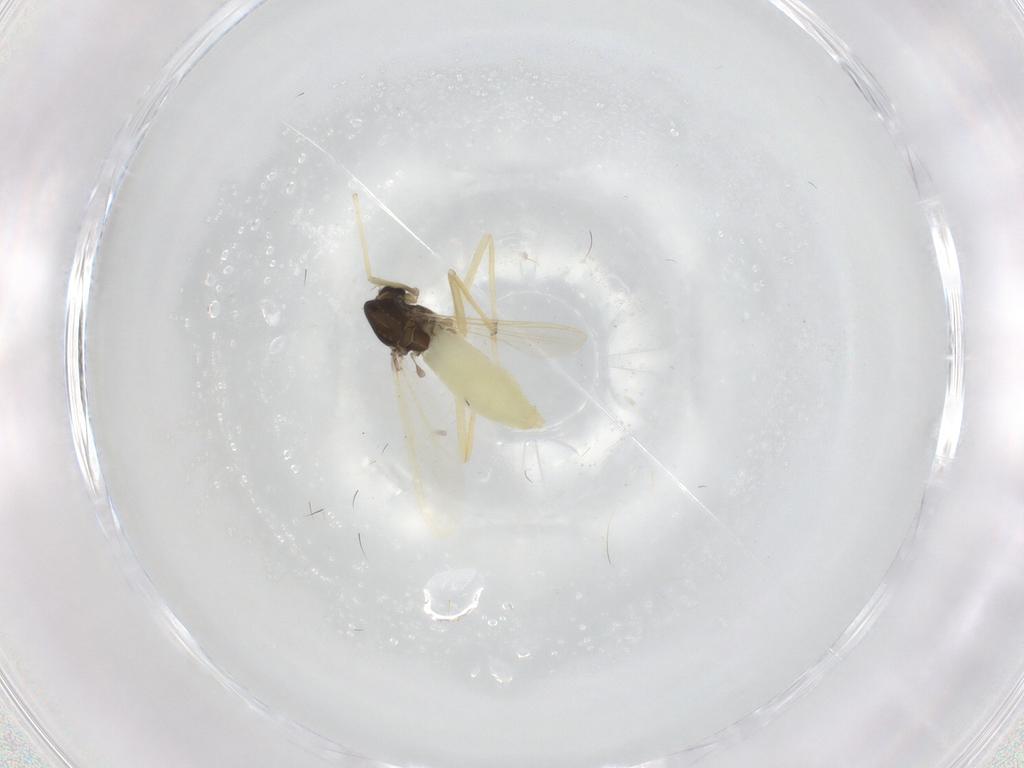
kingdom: Animalia
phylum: Arthropoda
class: Insecta
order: Diptera
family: Chironomidae
